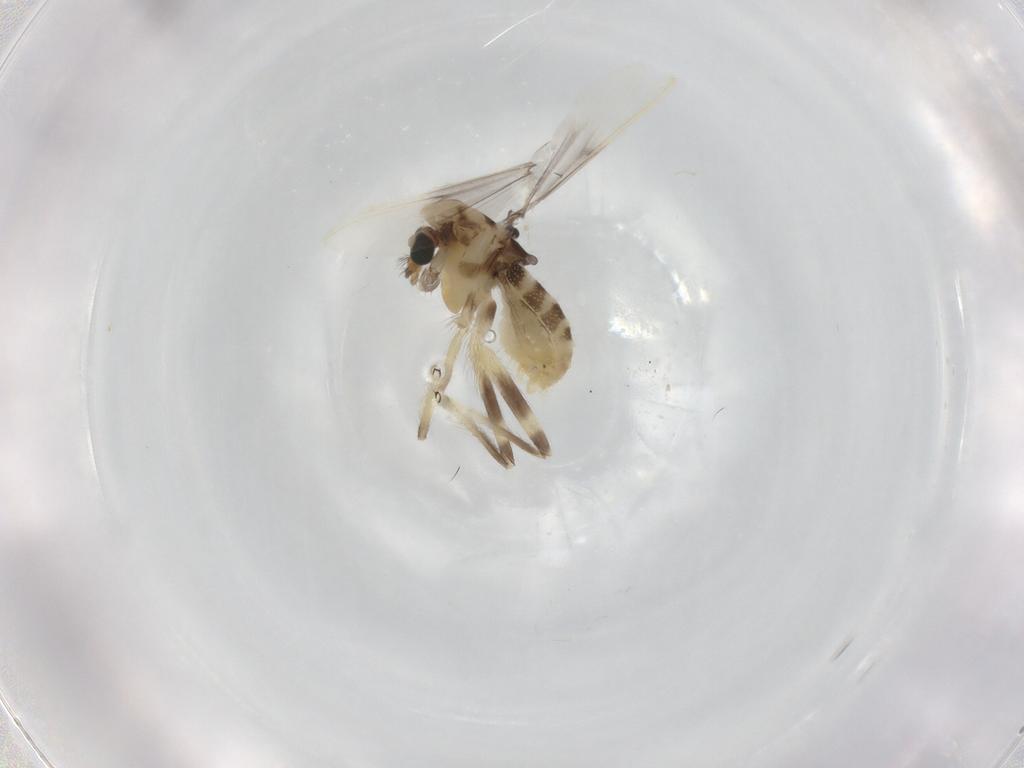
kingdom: Animalia
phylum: Arthropoda
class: Insecta
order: Diptera
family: Chironomidae
